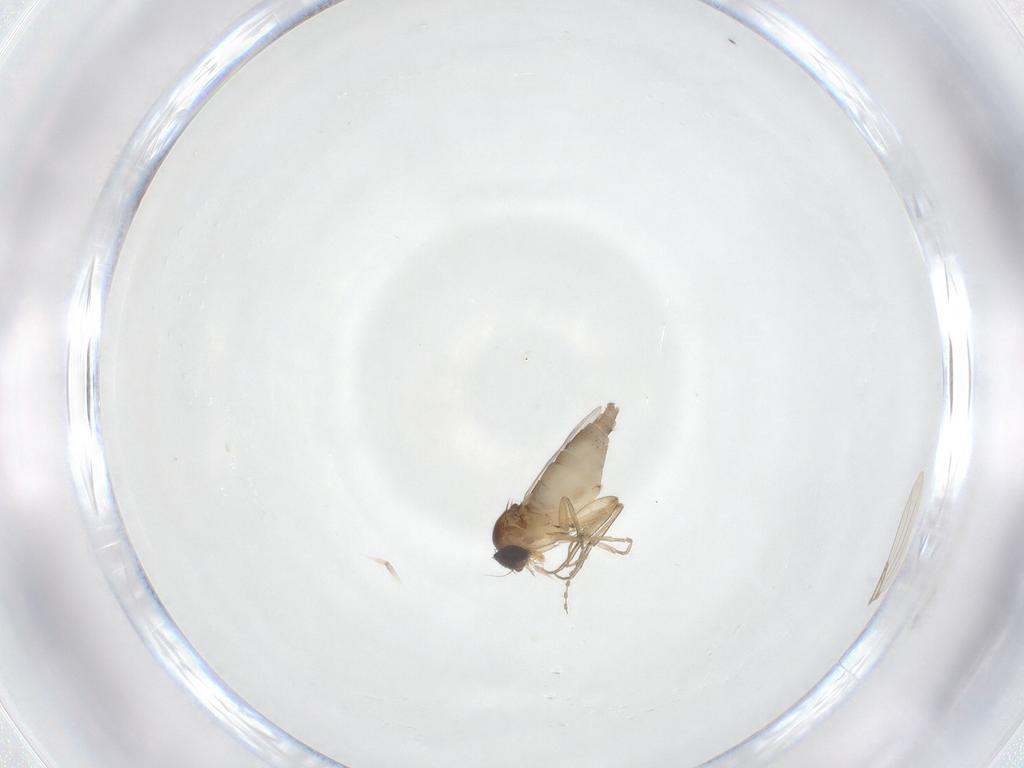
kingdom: Animalia
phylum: Arthropoda
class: Insecta
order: Diptera
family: Phoridae
